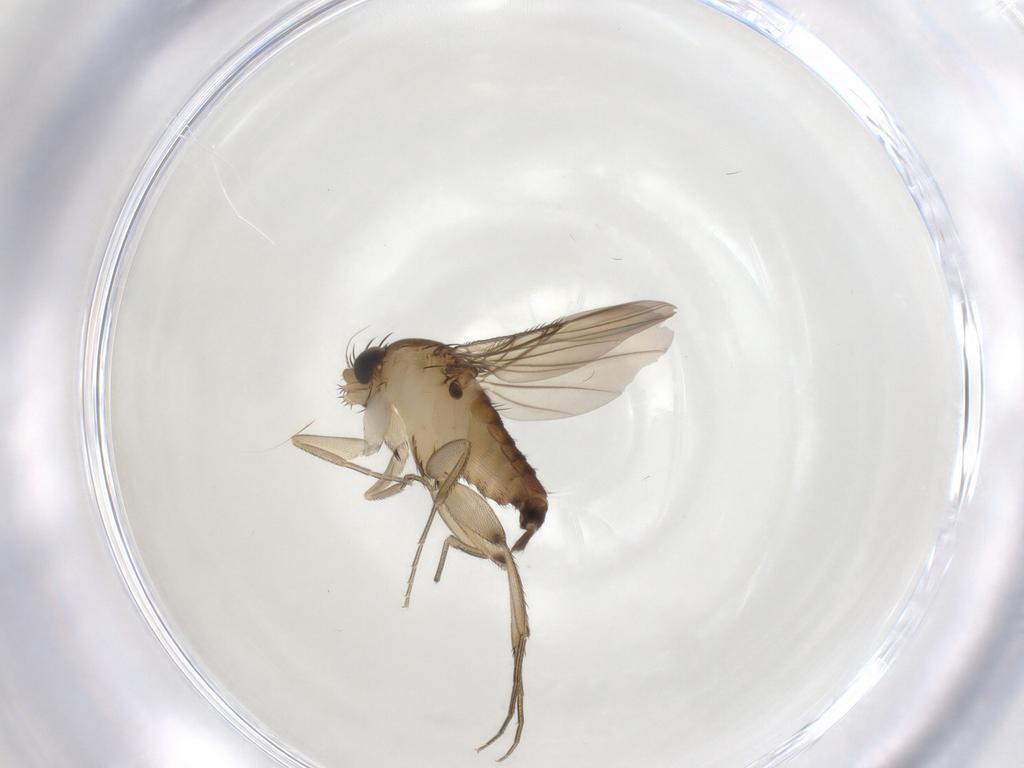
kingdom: Animalia
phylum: Arthropoda
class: Insecta
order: Diptera
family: Phoridae
